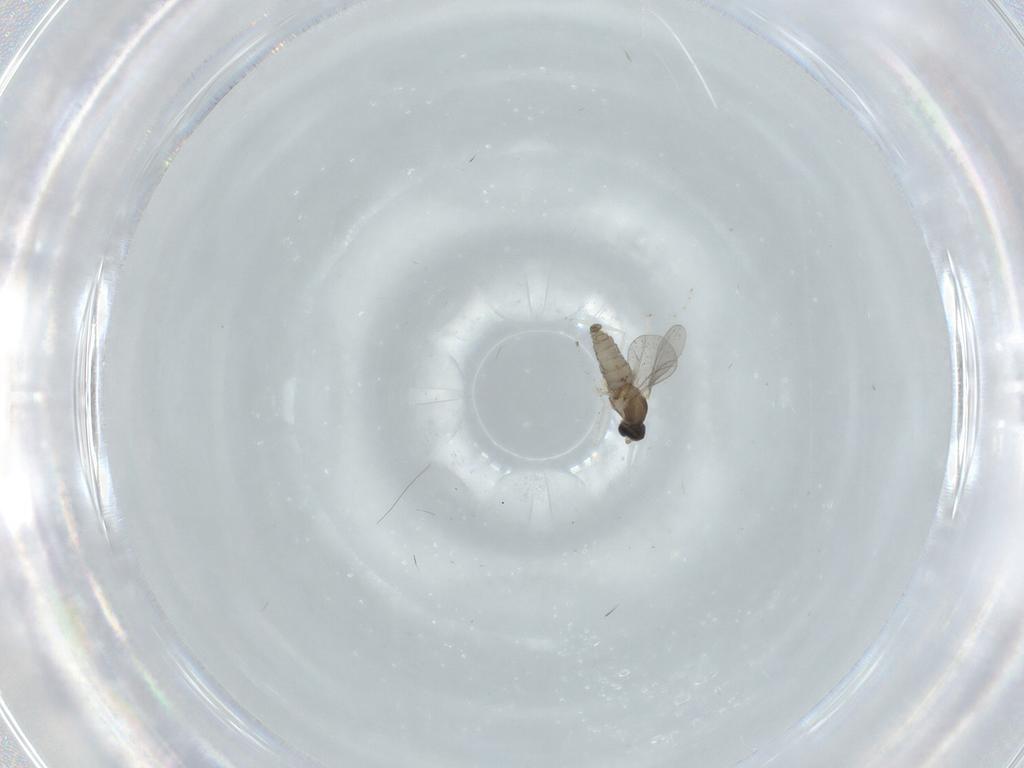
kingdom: Animalia
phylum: Arthropoda
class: Insecta
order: Diptera
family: Cecidomyiidae
